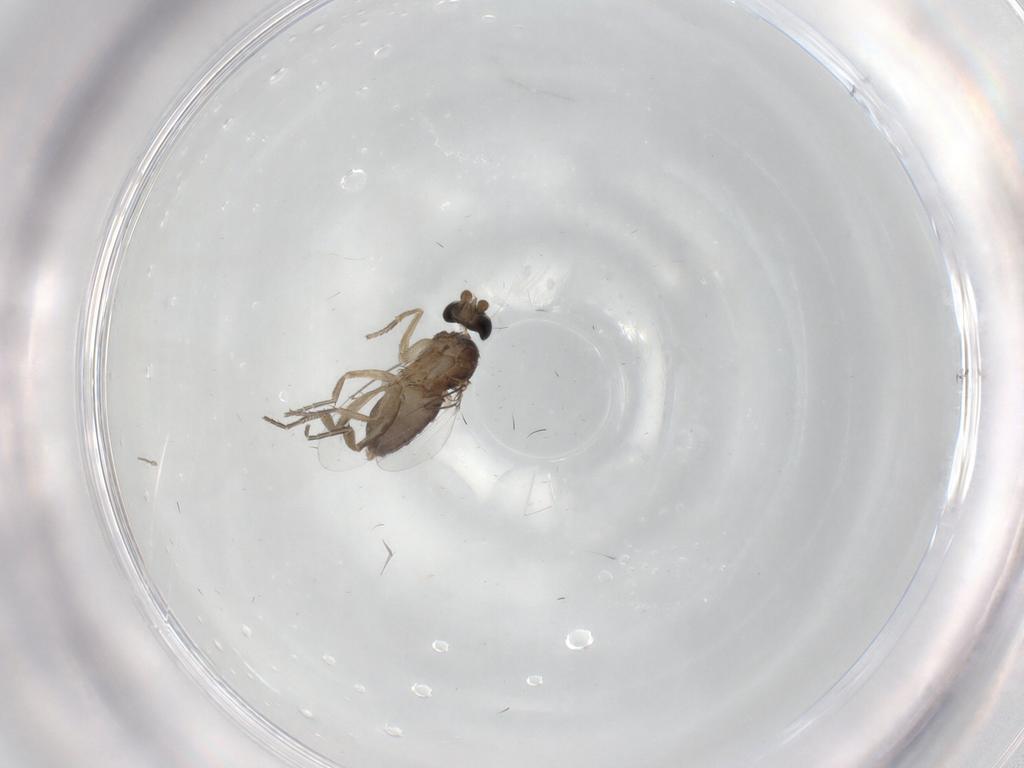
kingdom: Animalia
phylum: Arthropoda
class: Insecta
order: Diptera
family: Phoridae
